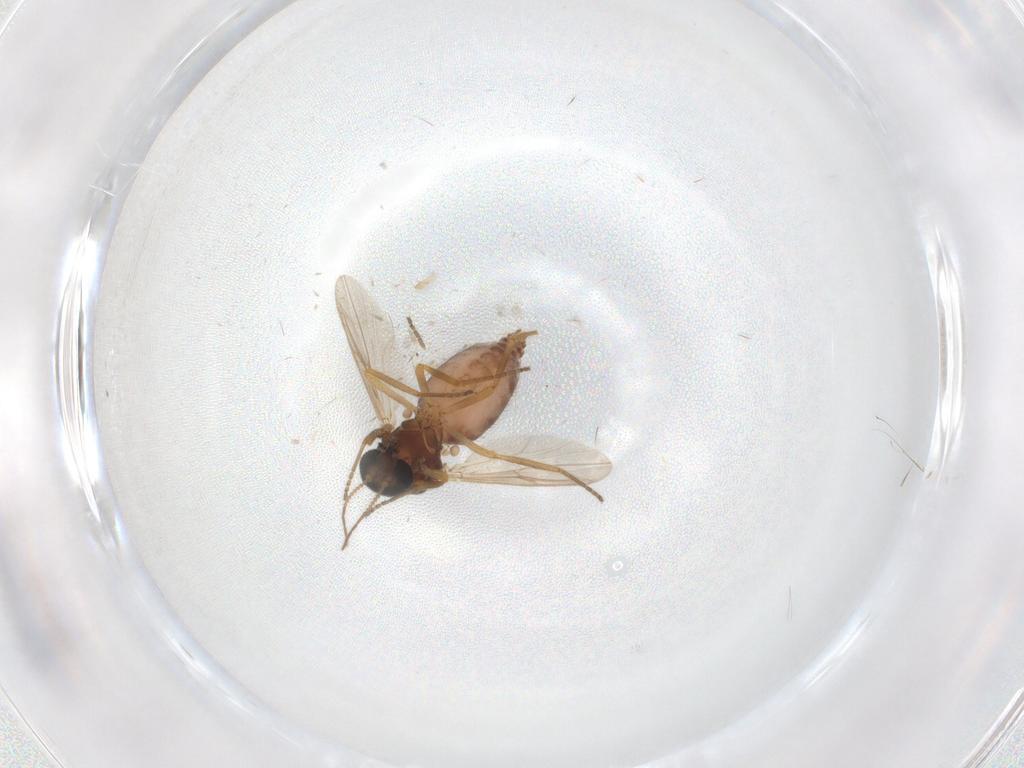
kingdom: Animalia
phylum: Arthropoda
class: Insecta
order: Diptera
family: Ceratopogonidae
